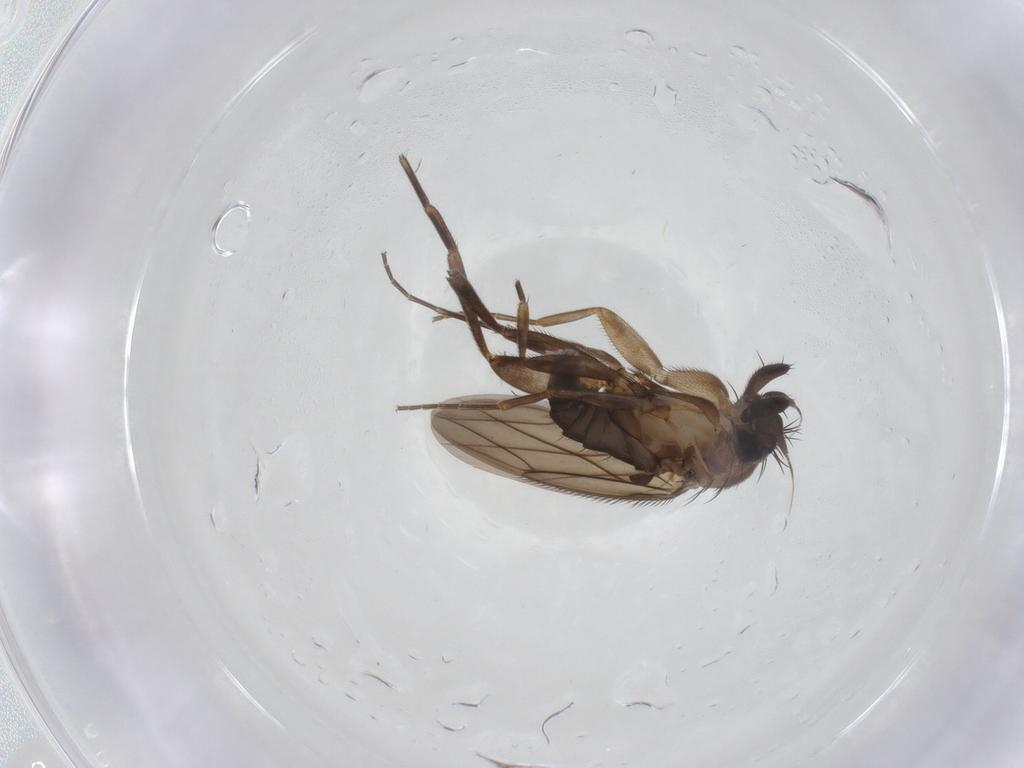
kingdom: Animalia
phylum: Arthropoda
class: Insecta
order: Diptera
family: Phoridae
